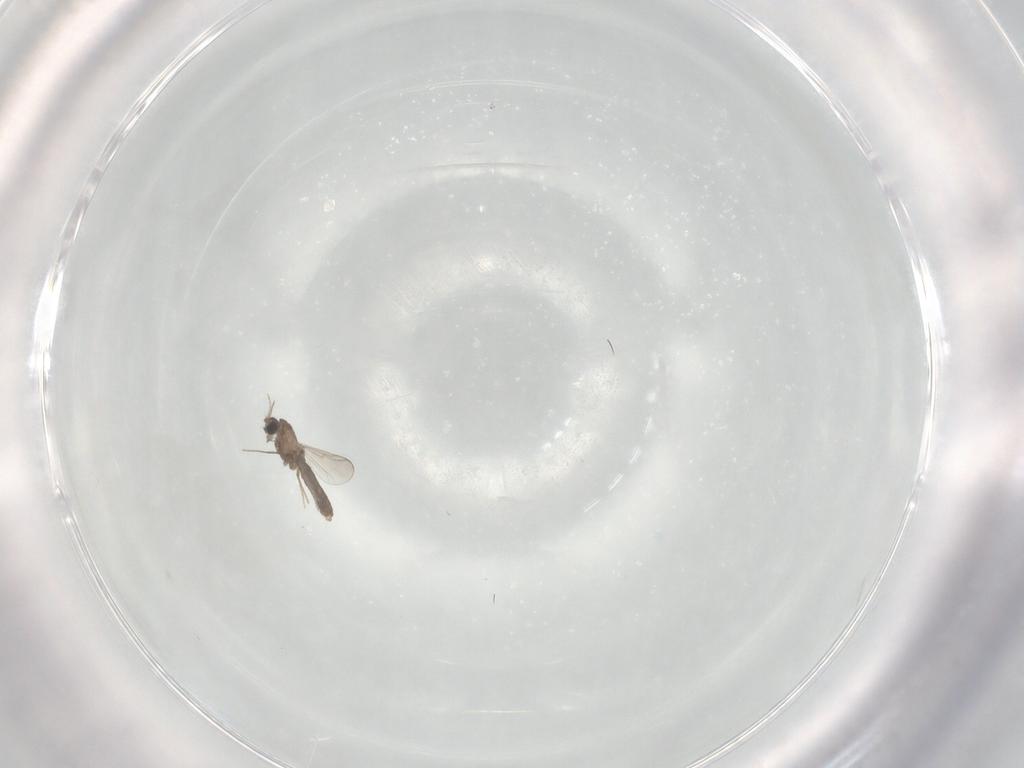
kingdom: Animalia
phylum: Arthropoda
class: Insecta
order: Diptera
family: Chironomidae
